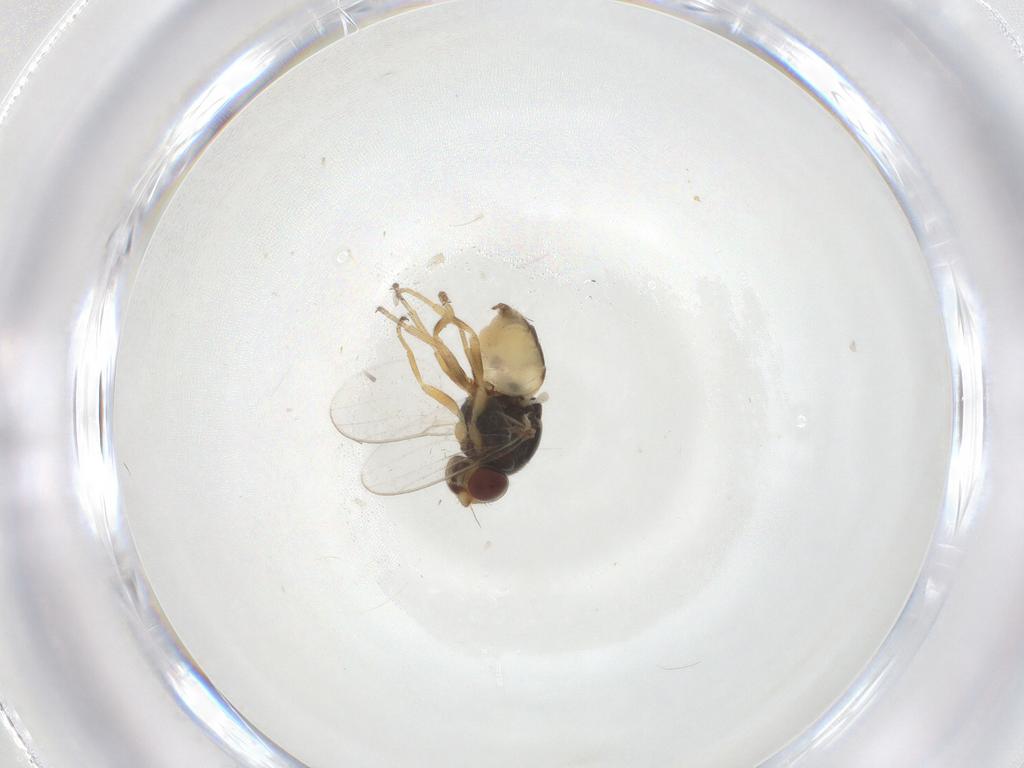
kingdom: Animalia
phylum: Arthropoda
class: Insecta
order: Diptera
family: Chloropidae
